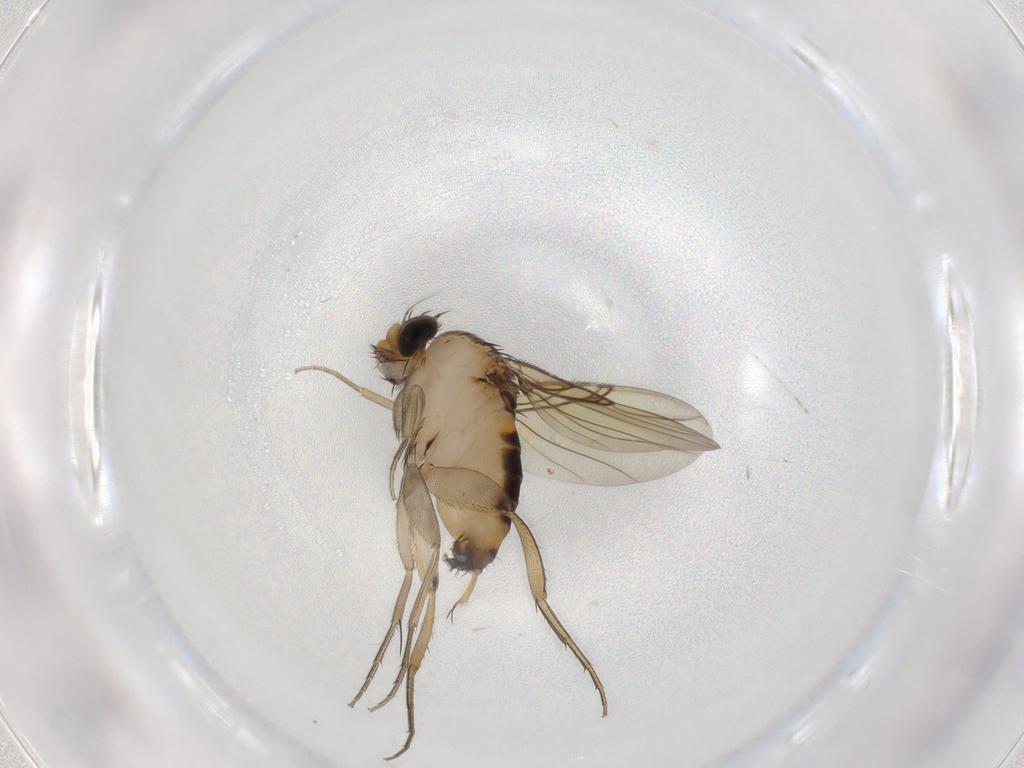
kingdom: Animalia
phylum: Arthropoda
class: Insecta
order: Diptera
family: Phoridae
